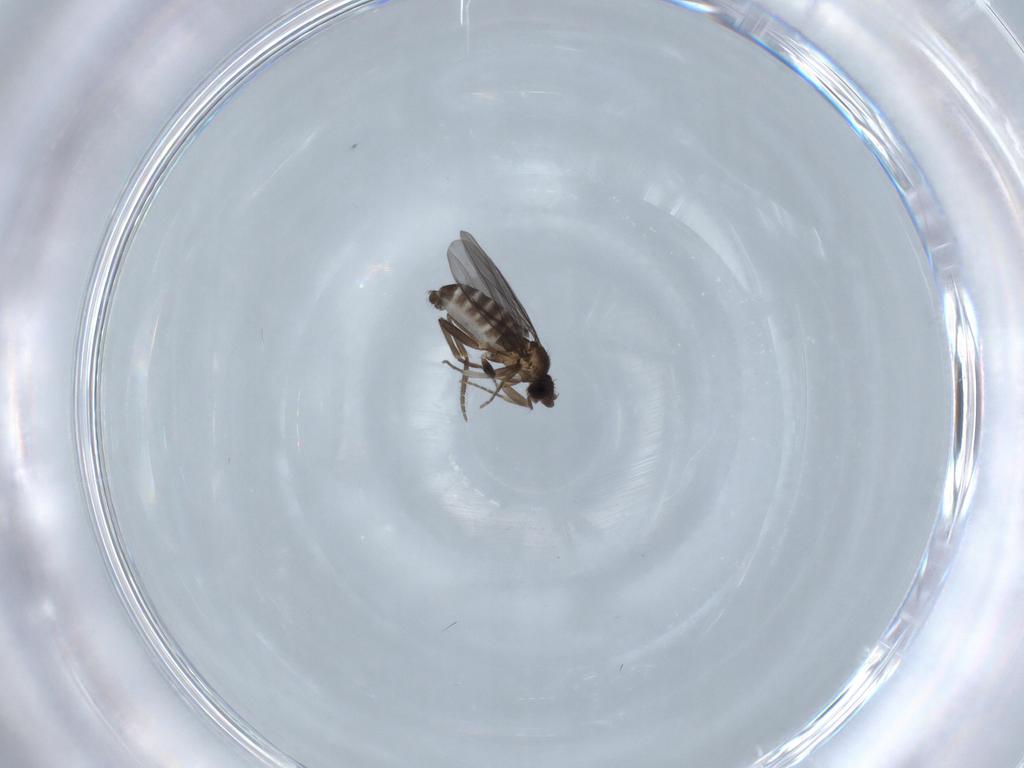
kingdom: Animalia
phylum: Arthropoda
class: Insecta
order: Diptera
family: Phoridae
